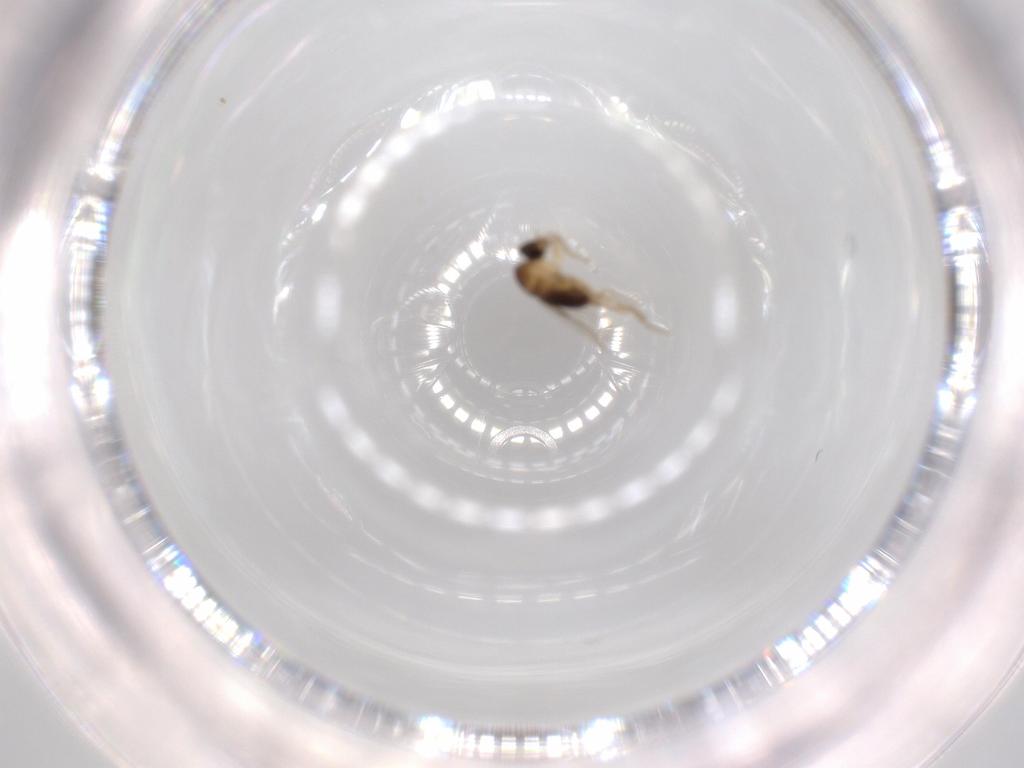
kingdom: Animalia
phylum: Arthropoda
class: Insecta
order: Diptera
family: Phoridae
